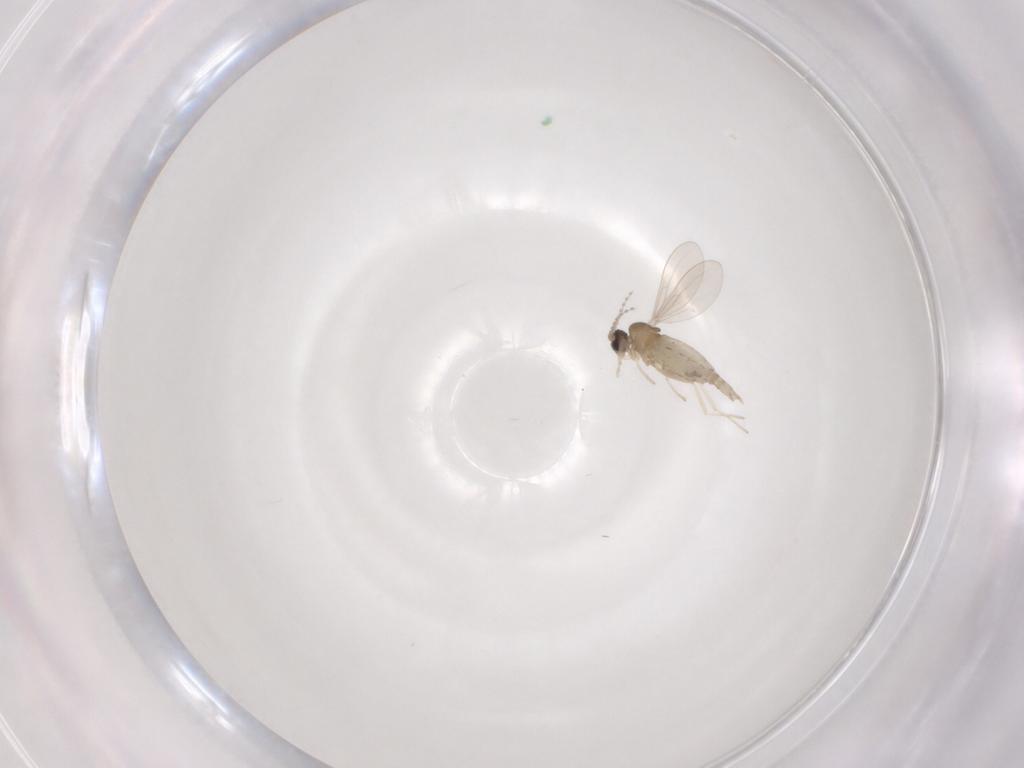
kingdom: Animalia
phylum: Arthropoda
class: Insecta
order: Diptera
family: Cecidomyiidae
